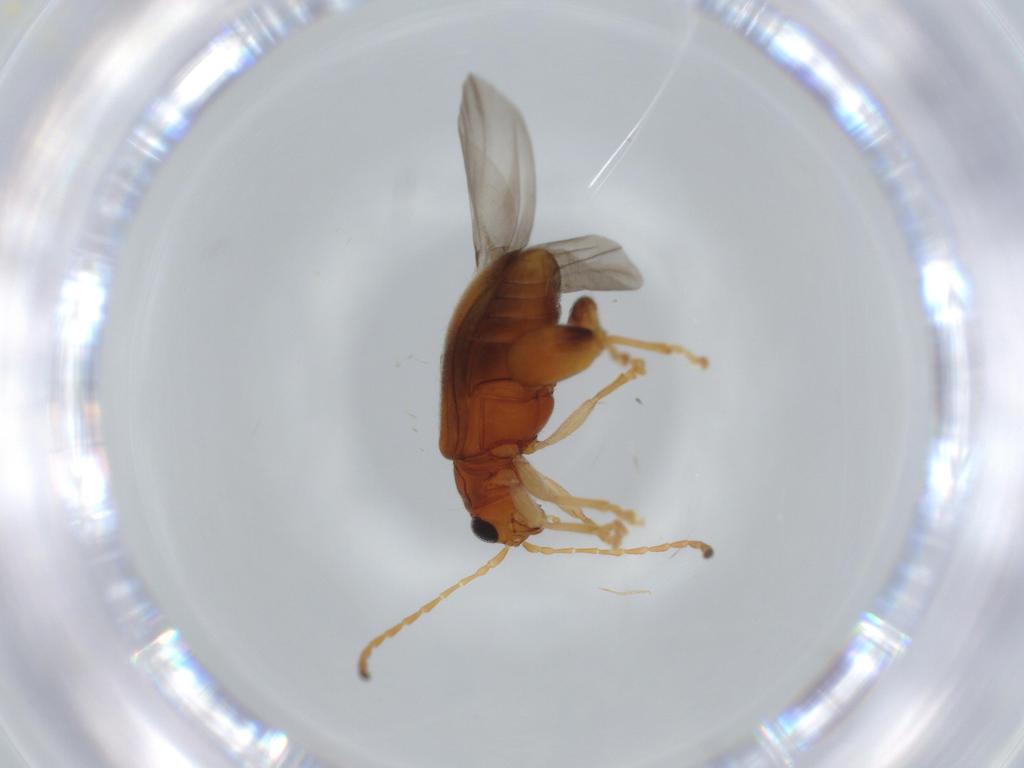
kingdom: Animalia
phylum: Arthropoda
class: Insecta
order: Coleoptera
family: Chrysomelidae
